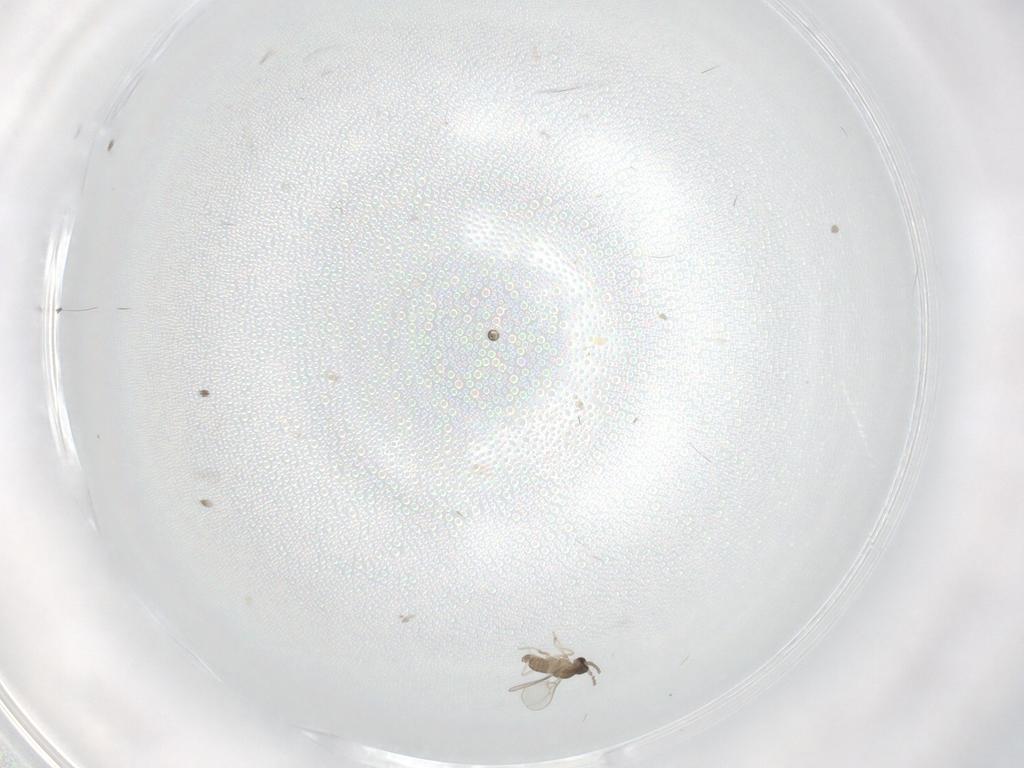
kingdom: Animalia
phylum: Arthropoda
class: Insecta
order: Diptera
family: Cecidomyiidae
